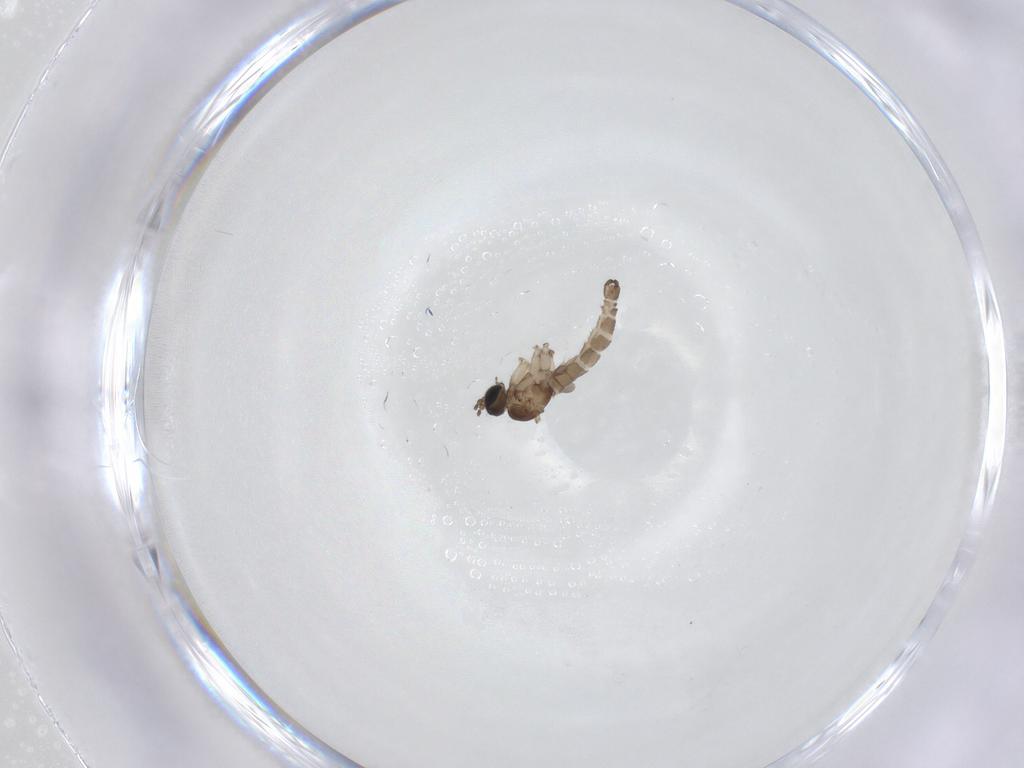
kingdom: Animalia
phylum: Arthropoda
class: Insecta
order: Diptera
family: Sciaridae
